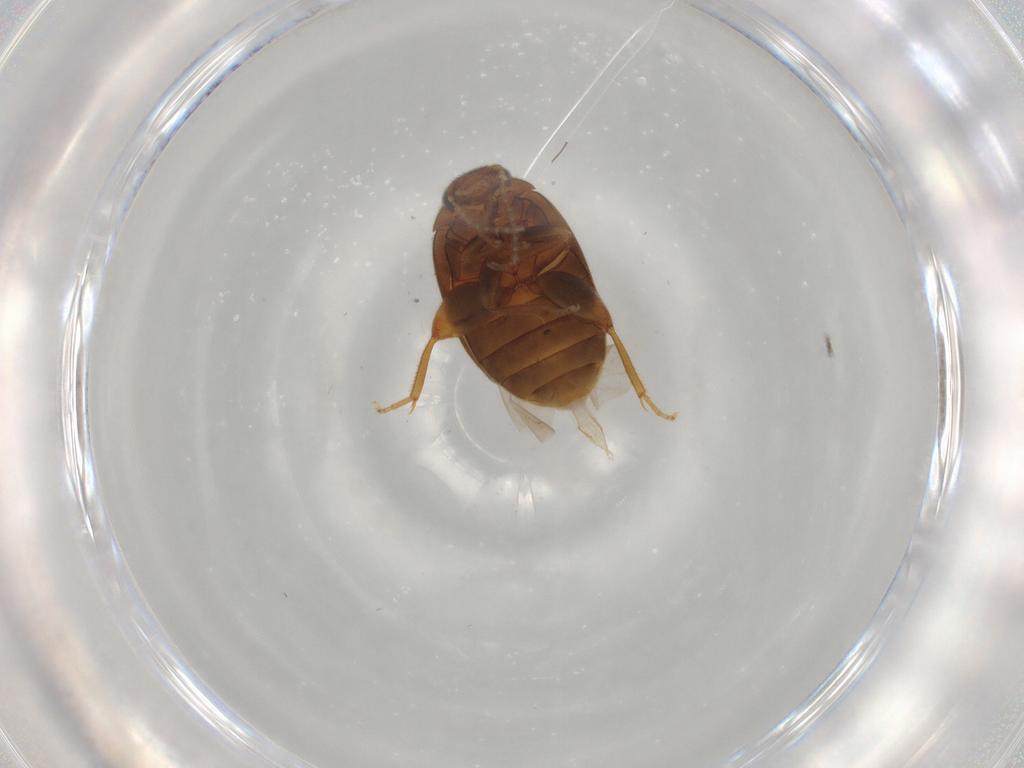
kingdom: Animalia
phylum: Arthropoda
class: Insecta
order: Coleoptera
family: Scirtidae
